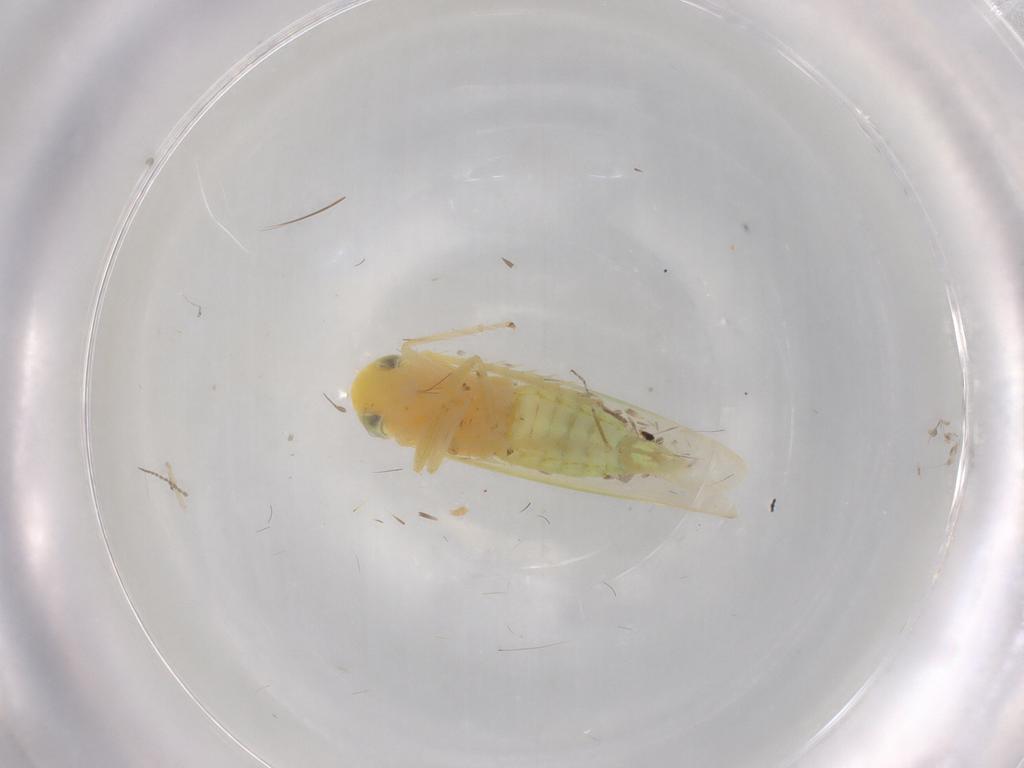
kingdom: Animalia
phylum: Arthropoda
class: Insecta
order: Hemiptera
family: Cicadellidae
